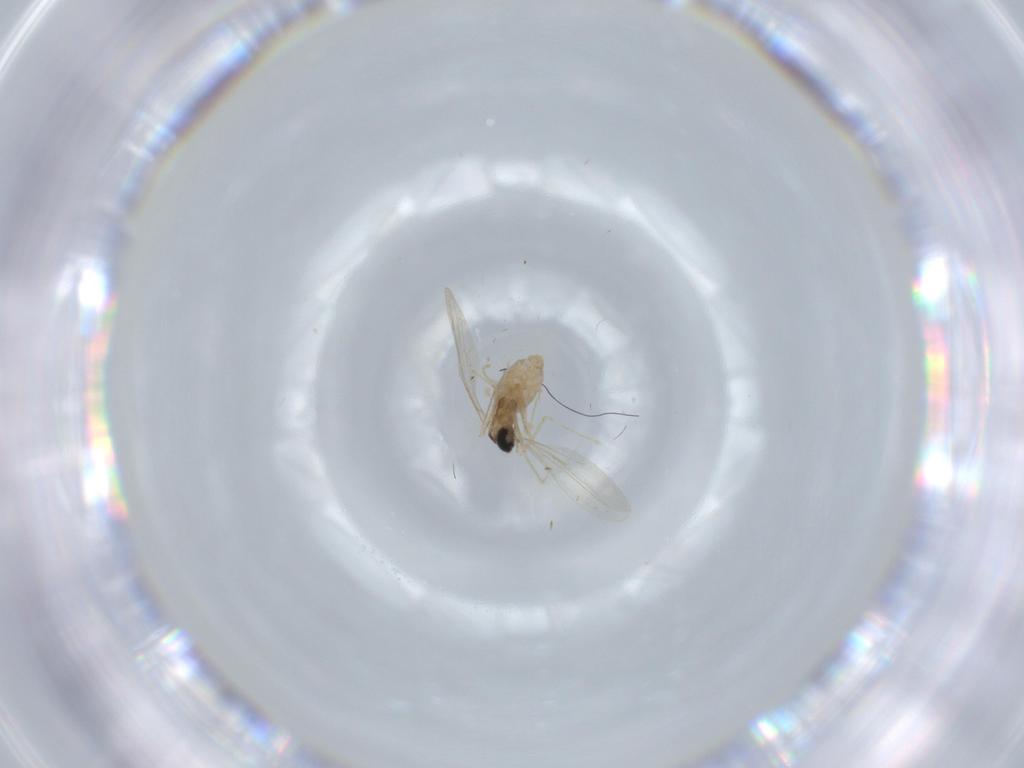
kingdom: Animalia
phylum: Arthropoda
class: Insecta
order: Diptera
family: Cecidomyiidae
